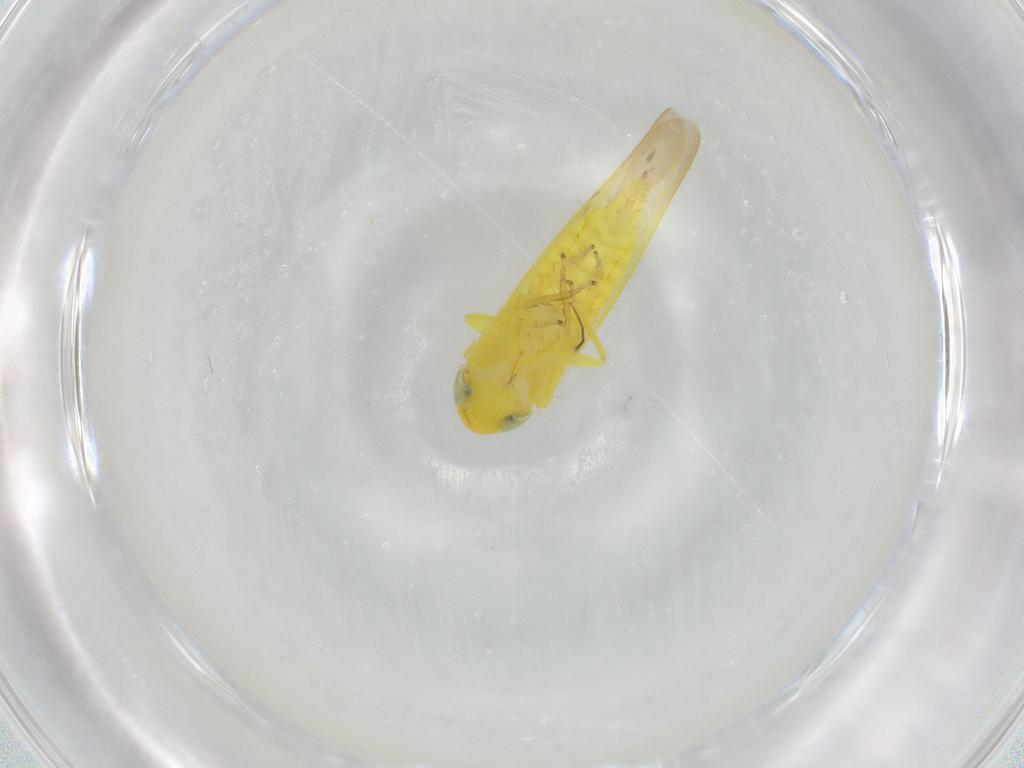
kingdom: Animalia
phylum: Arthropoda
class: Insecta
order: Hemiptera
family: Cicadellidae
